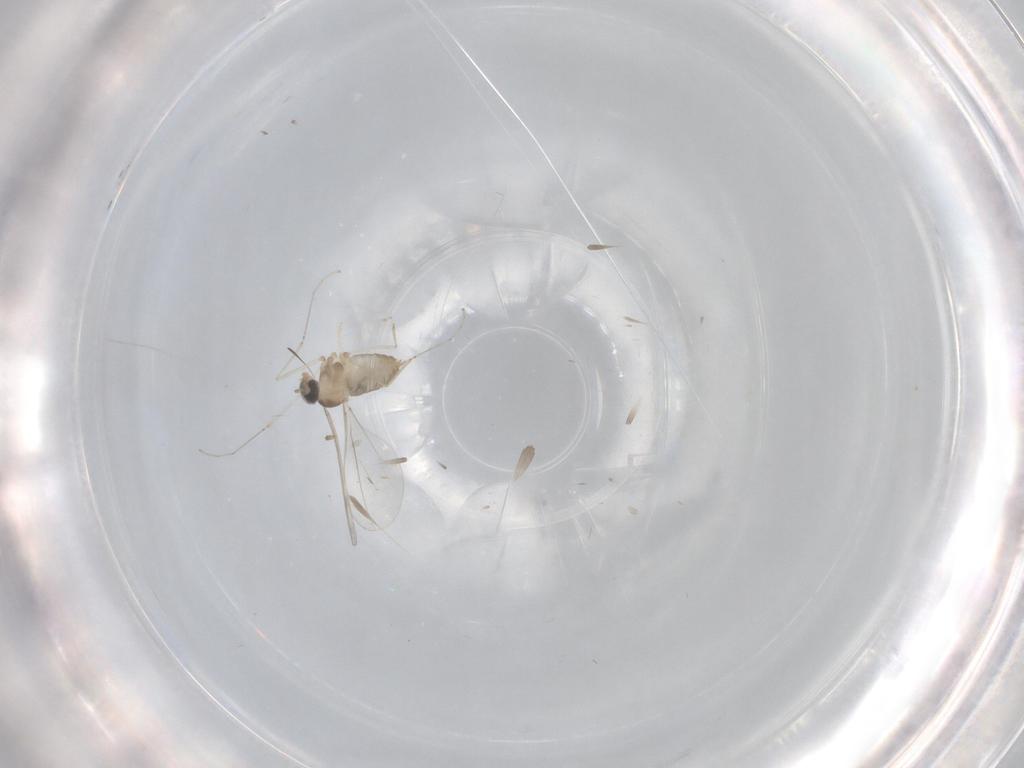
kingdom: Animalia
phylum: Arthropoda
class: Insecta
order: Diptera
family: Cecidomyiidae
